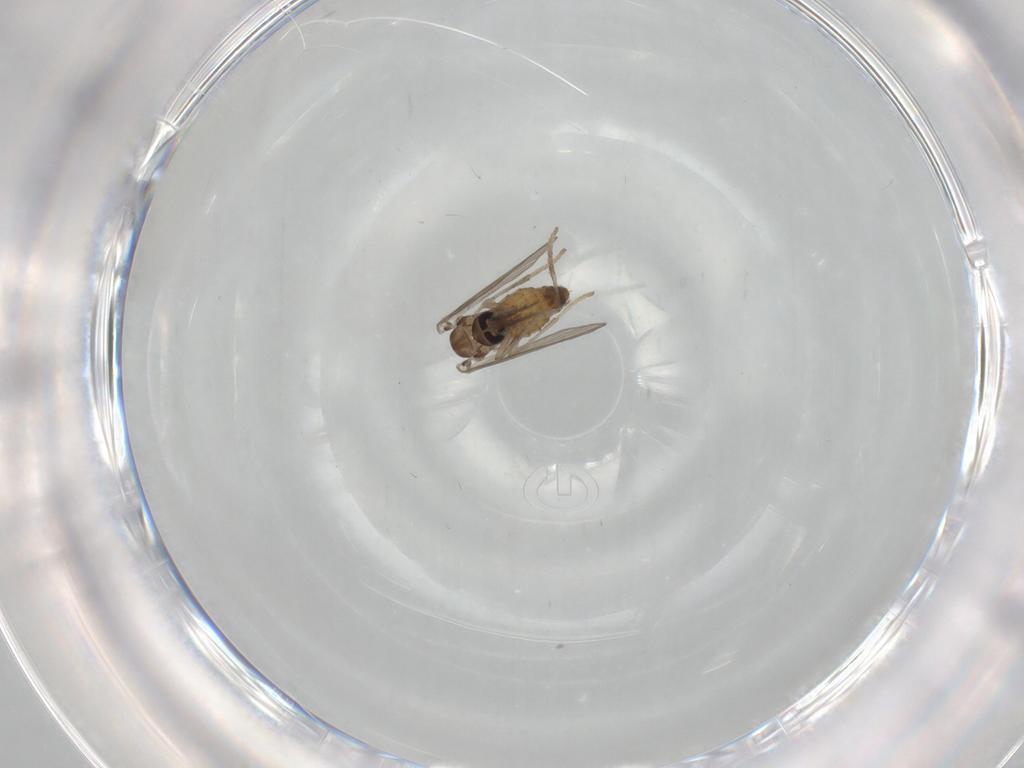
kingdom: Animalia
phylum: Arthropoda
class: Insecta
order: Diptera
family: Psychodidae
